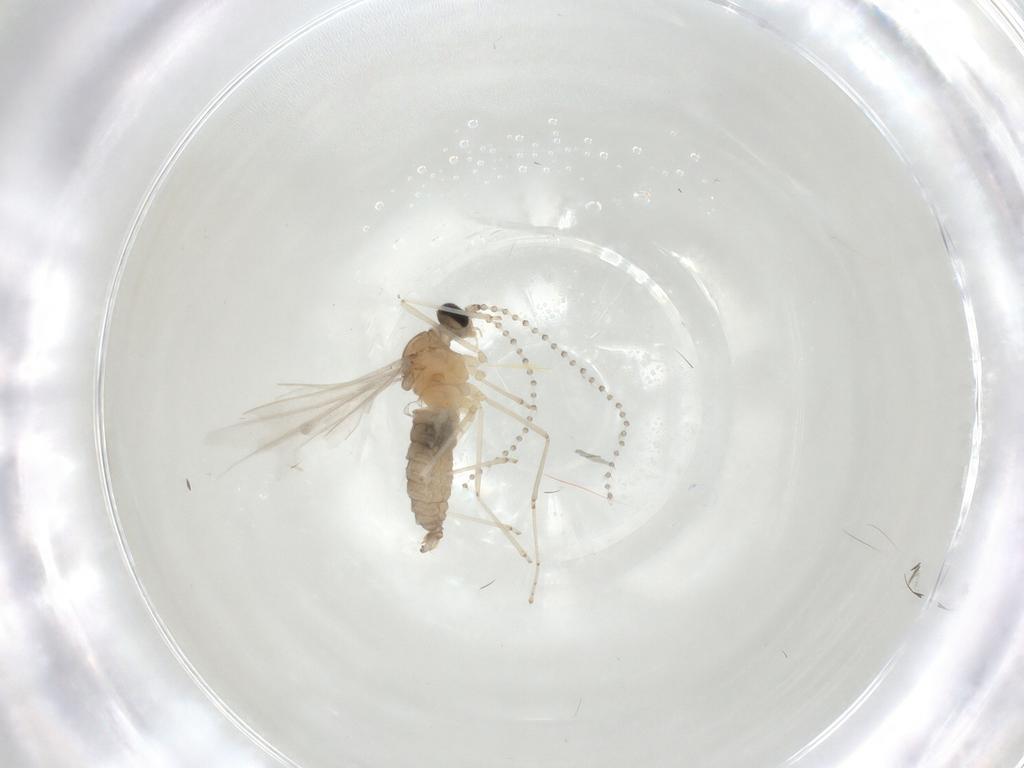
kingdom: Animalia
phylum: Arthropoda
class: Insecta
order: Diptera
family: Cecidomyiidae
